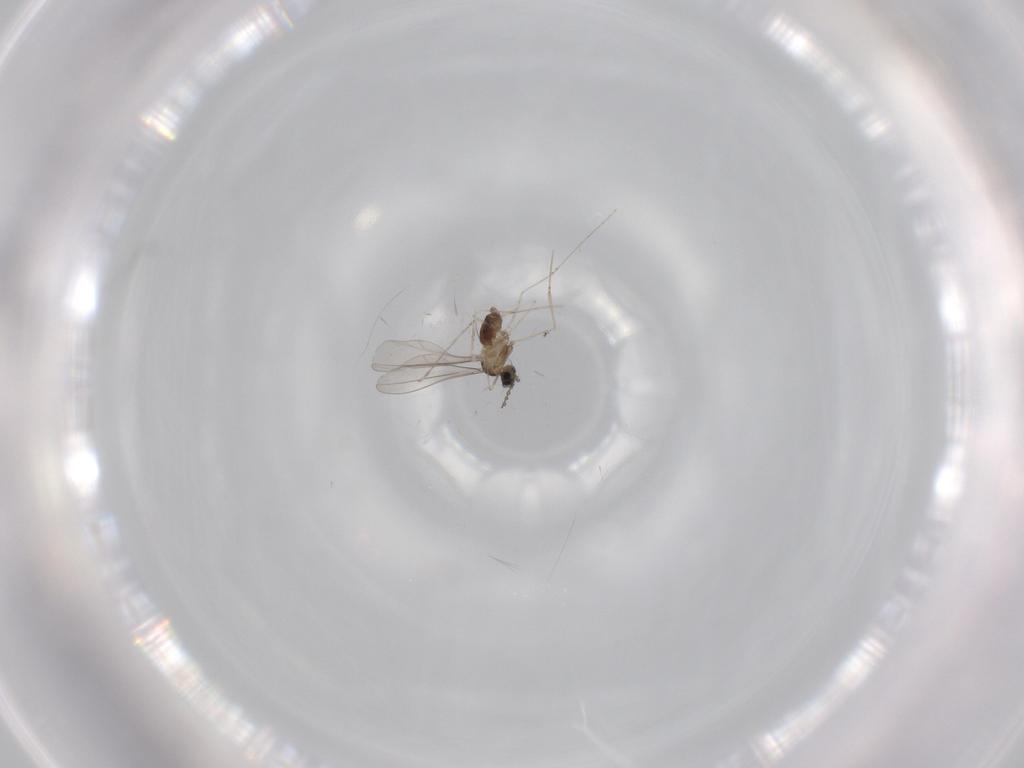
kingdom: Animalia
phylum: Arthropoda
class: Insecta
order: Diptera
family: Cecidomyiidae
